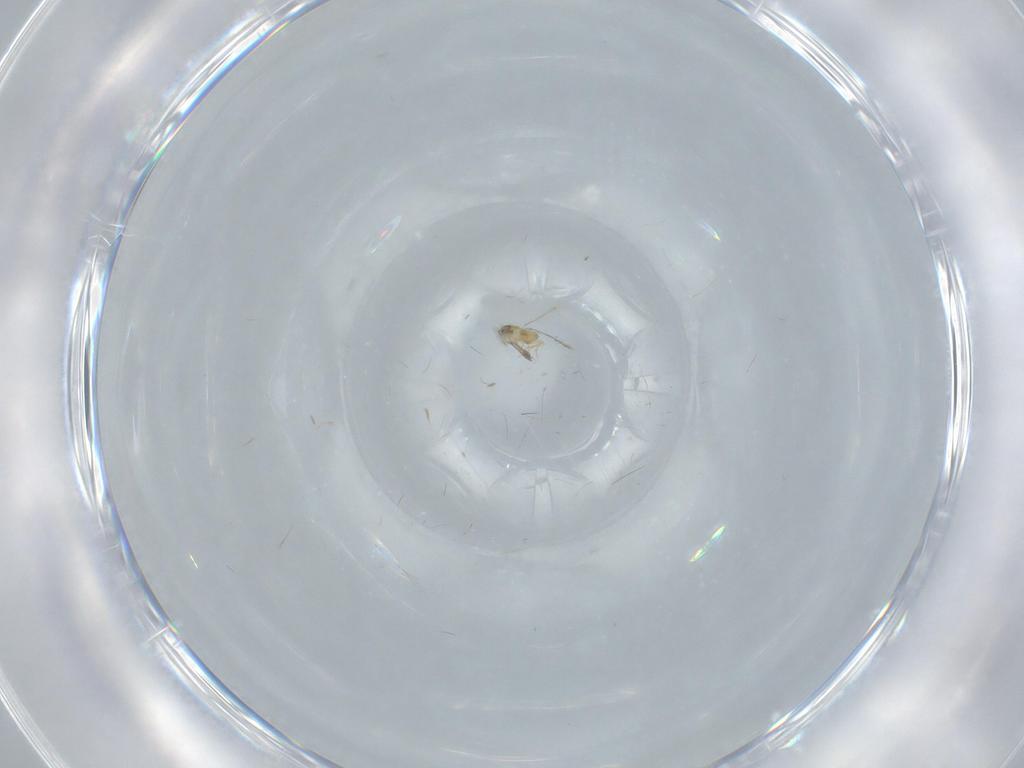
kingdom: Animalia
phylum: Arthropoda
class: Insecta
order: Diptera
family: Phoridae
